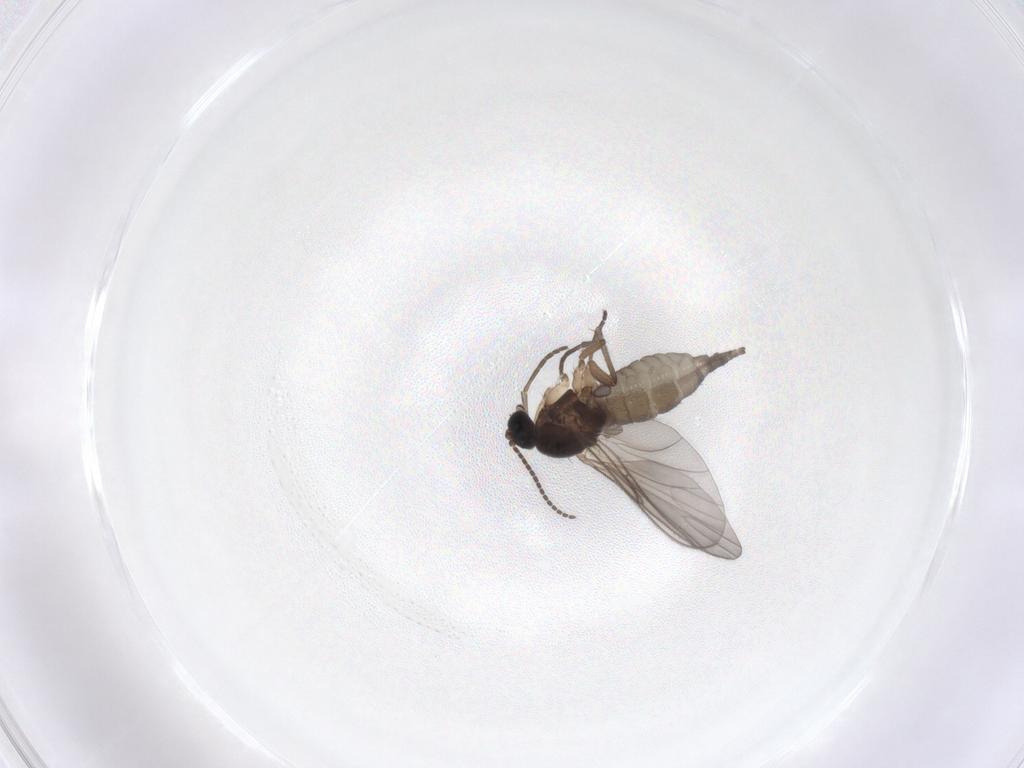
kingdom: Animalia
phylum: Arthropoda
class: Insecta
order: Diptera
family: Sciaridae
